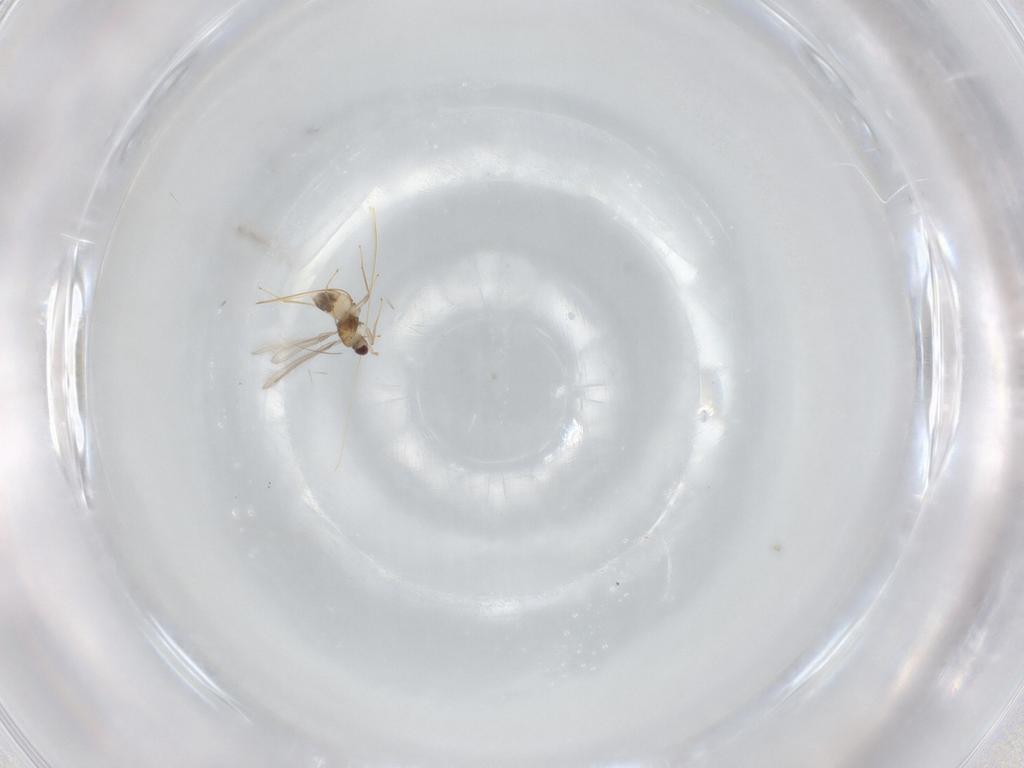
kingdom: Animalia
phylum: Arthropoda
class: Insecta
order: Hymenoptera
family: Mymaridae
